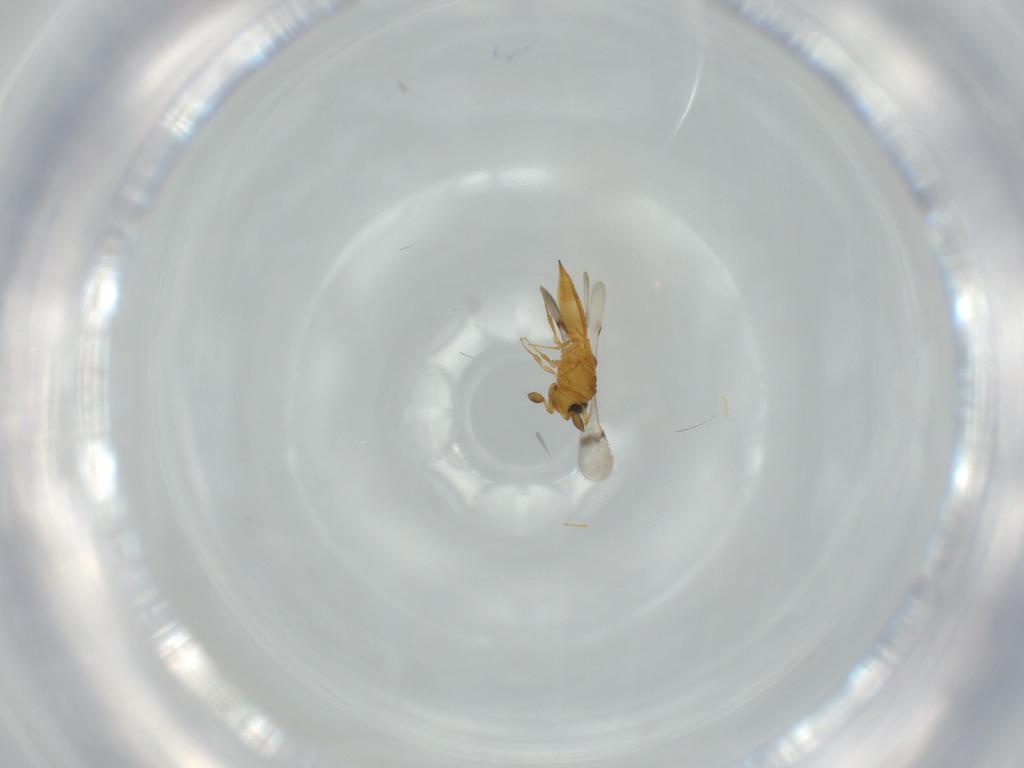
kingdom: Animalia
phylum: Arthropoda
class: Insecta
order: Hymenoptera
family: Scelionidae
